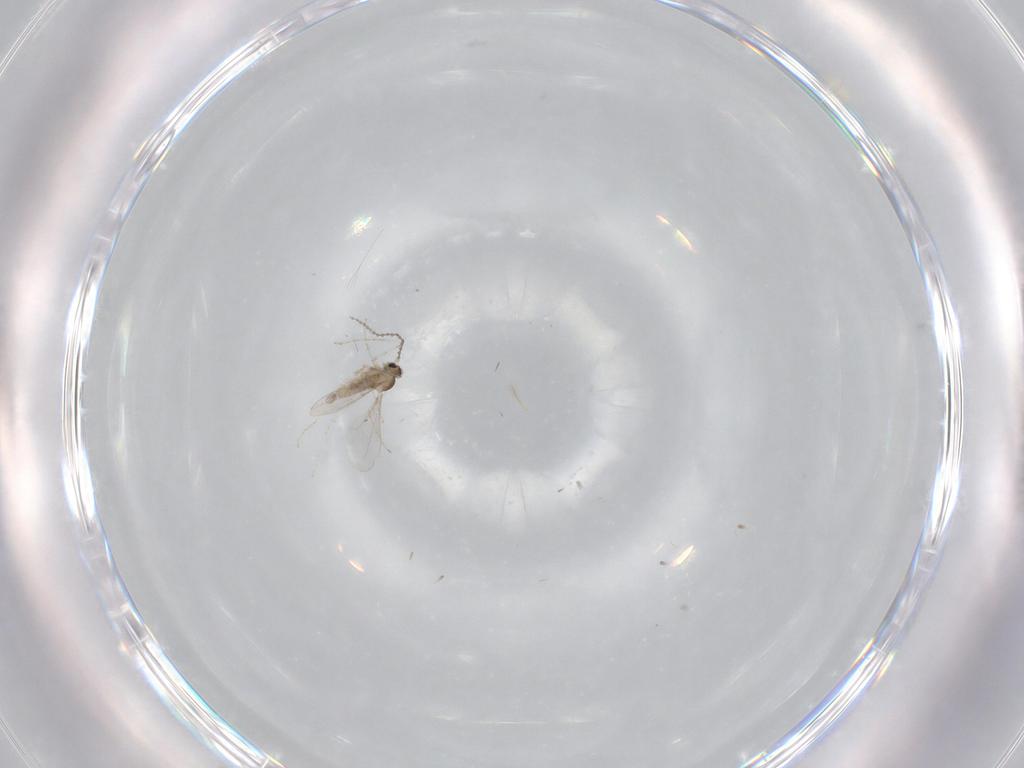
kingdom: Animalia
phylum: Arthropoda
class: Insecta
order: Diptera
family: Cecidomyiidae
